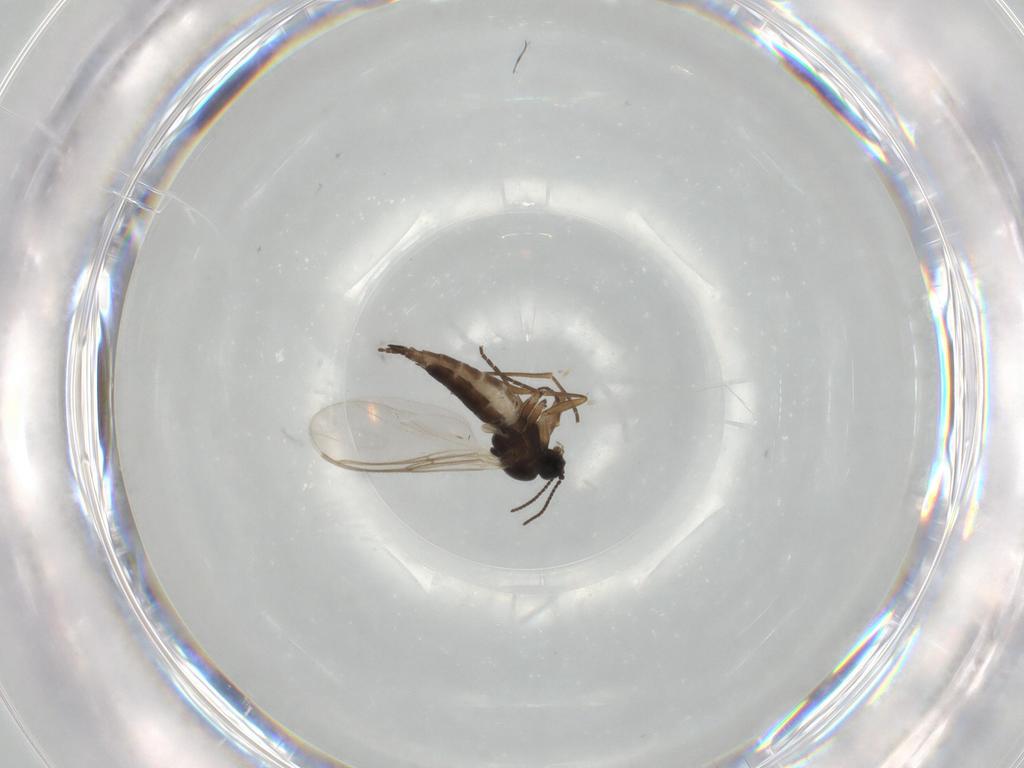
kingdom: Animalia
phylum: Arthropoda
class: Insecta
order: Diptera
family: Sciaridae
